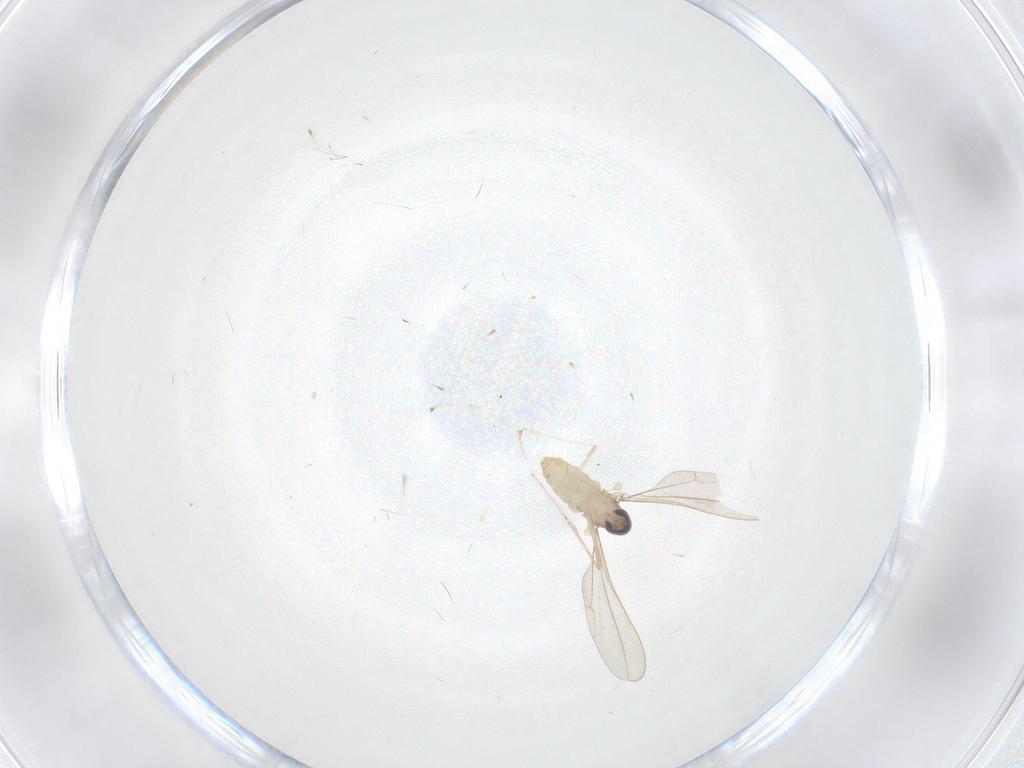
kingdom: Animalia
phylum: Arthropoda
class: Insecta
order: Diptera
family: Cecidomyiidae
